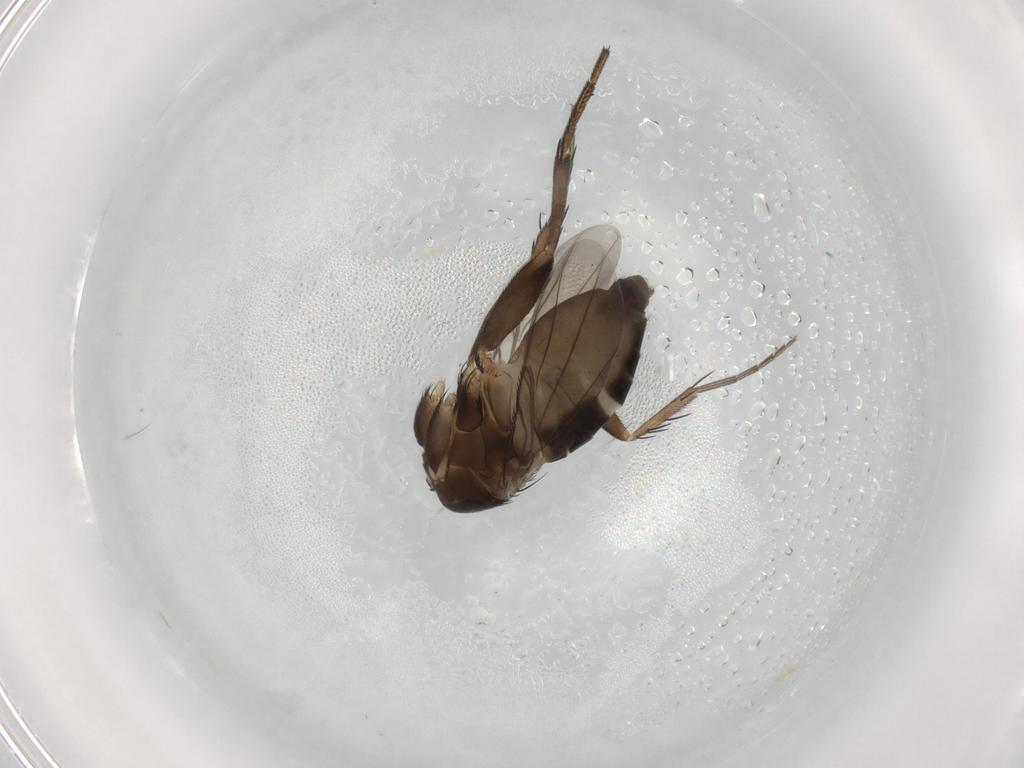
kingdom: Animalia
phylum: Arthropoda
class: Insecta
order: Diptera
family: Phoridae
